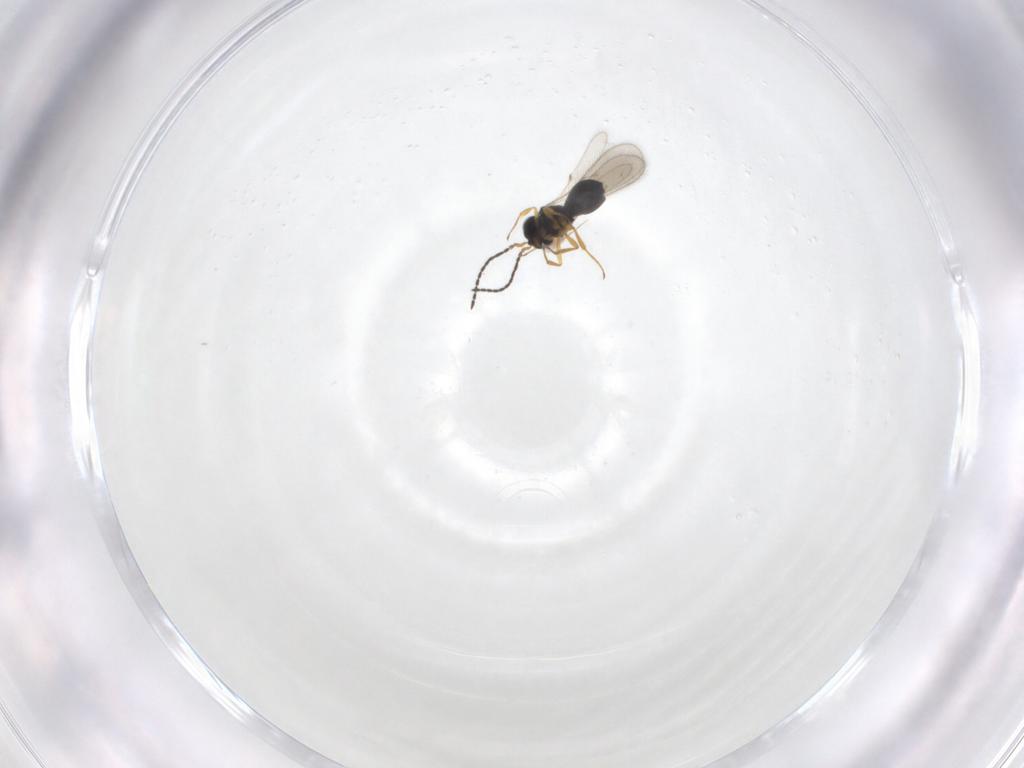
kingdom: Animalia
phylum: Arthropoda
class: Insecta
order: Hymenoptera
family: Scelionidae
